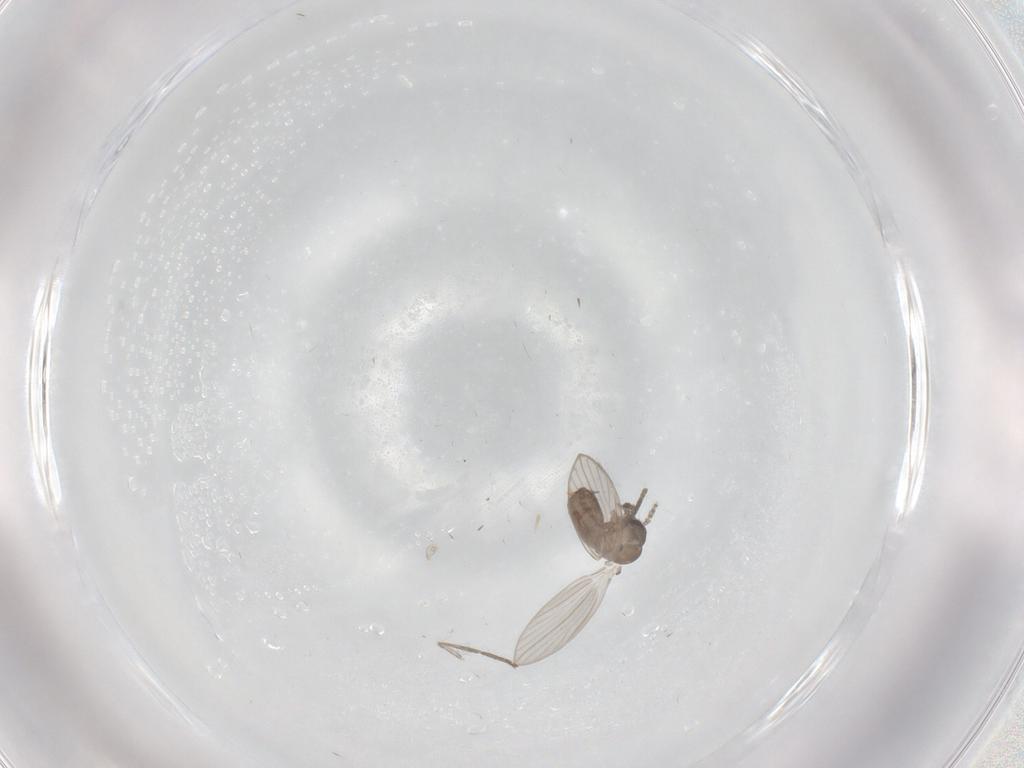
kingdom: Animalia
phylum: Arthropoda
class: Insecta
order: Diptera
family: Psychodidae
